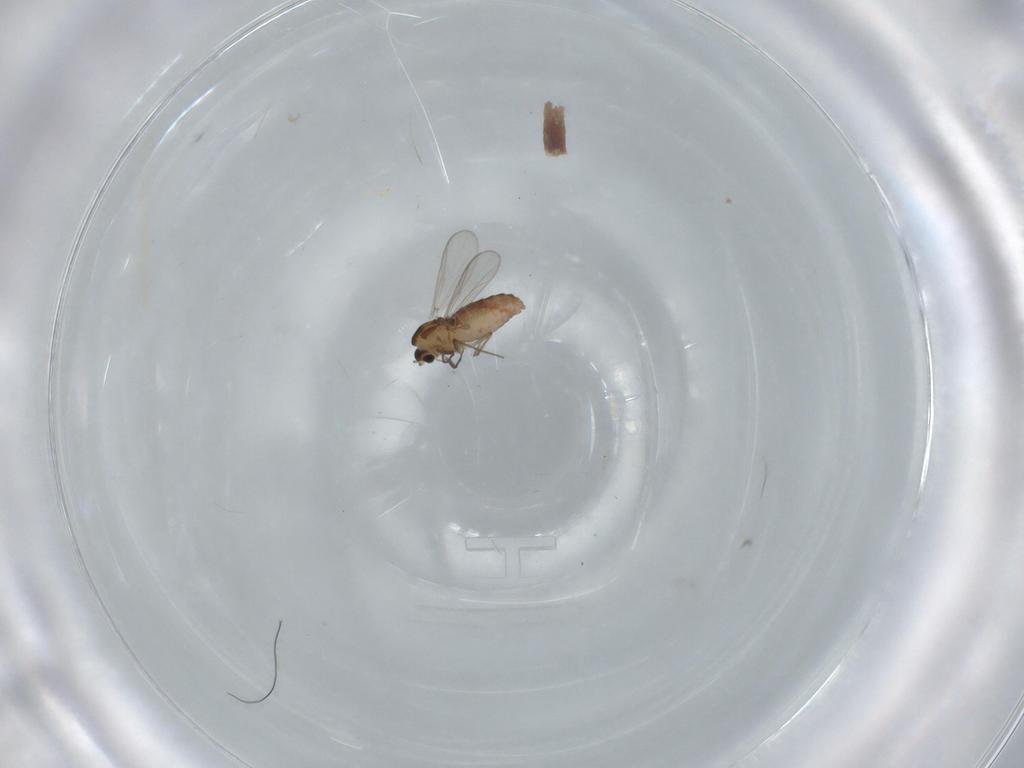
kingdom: Animalia
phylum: Arthropoda
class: Insecta
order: Diptera
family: Chironomidae
